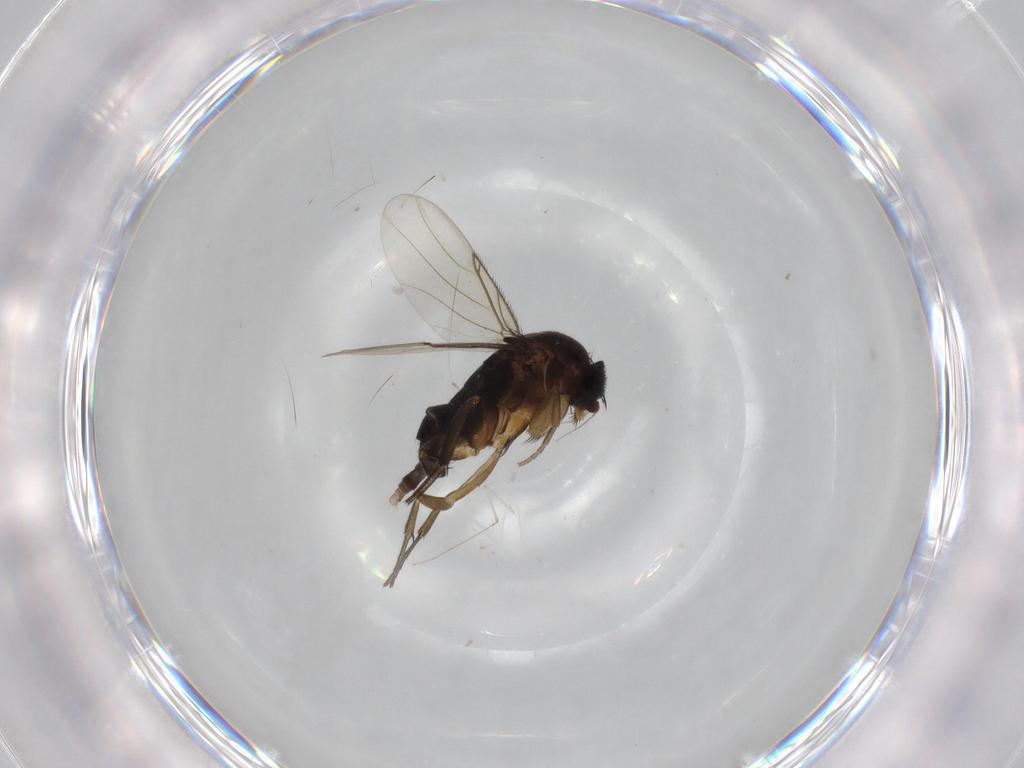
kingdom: Animalia
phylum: Arthropoda
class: Insecta
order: Diptera
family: Phoridae
